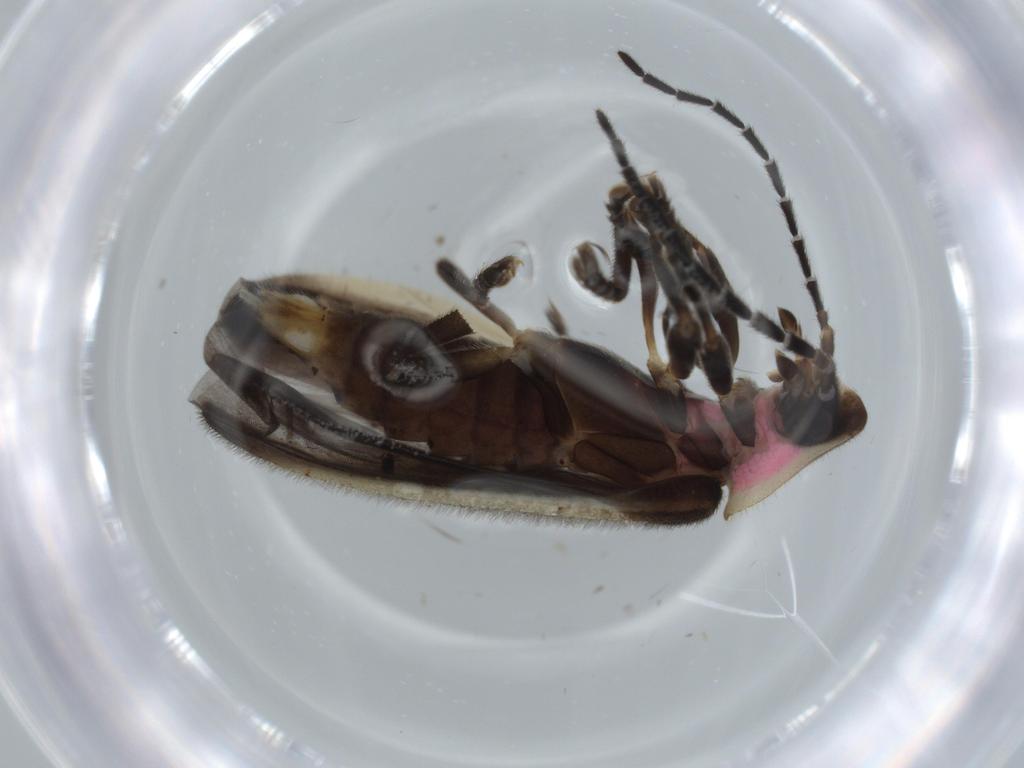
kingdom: Animalia
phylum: Arthropoda
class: Insecta
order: Coleoptera
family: Lampyridae
